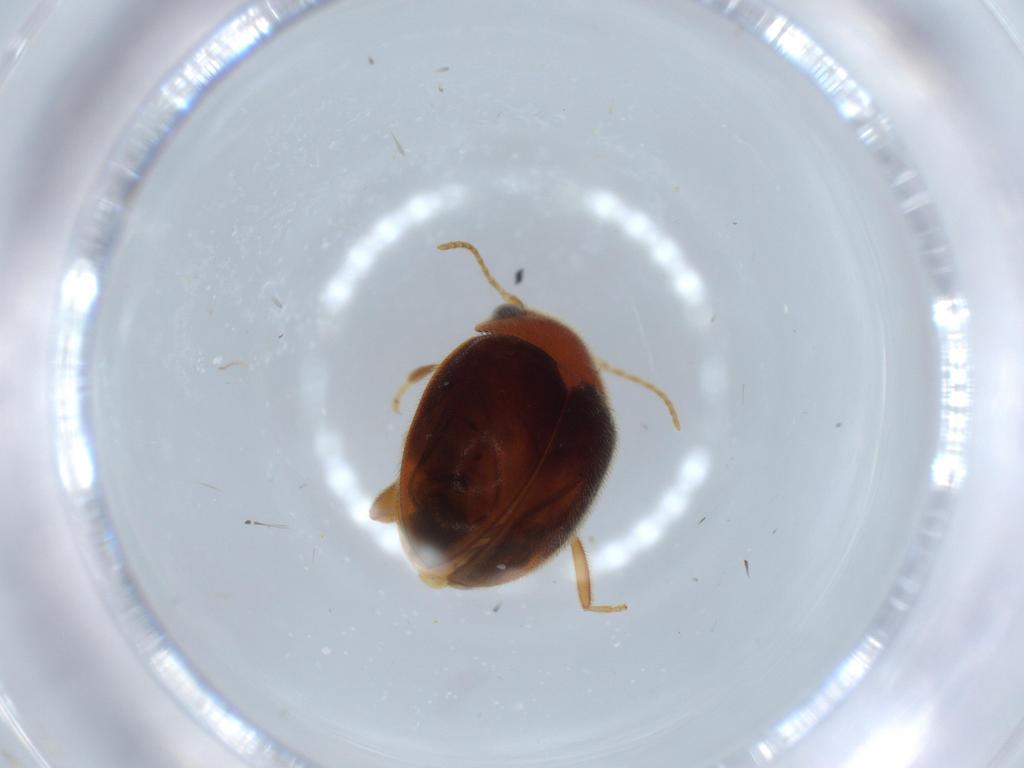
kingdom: Animalia
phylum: Arthropoda
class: Insecta
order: Coleoptera
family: Scirtidae
